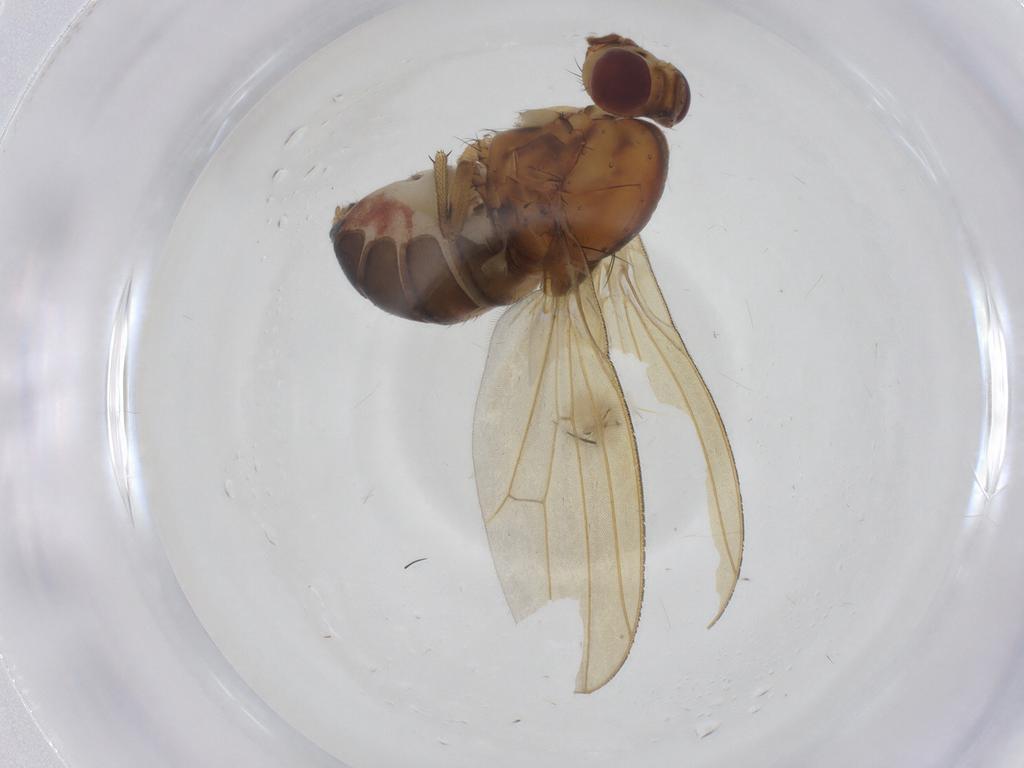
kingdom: Animalia
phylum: Arthropoda
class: Insecta
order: Diptera
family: Lauxaniidae
